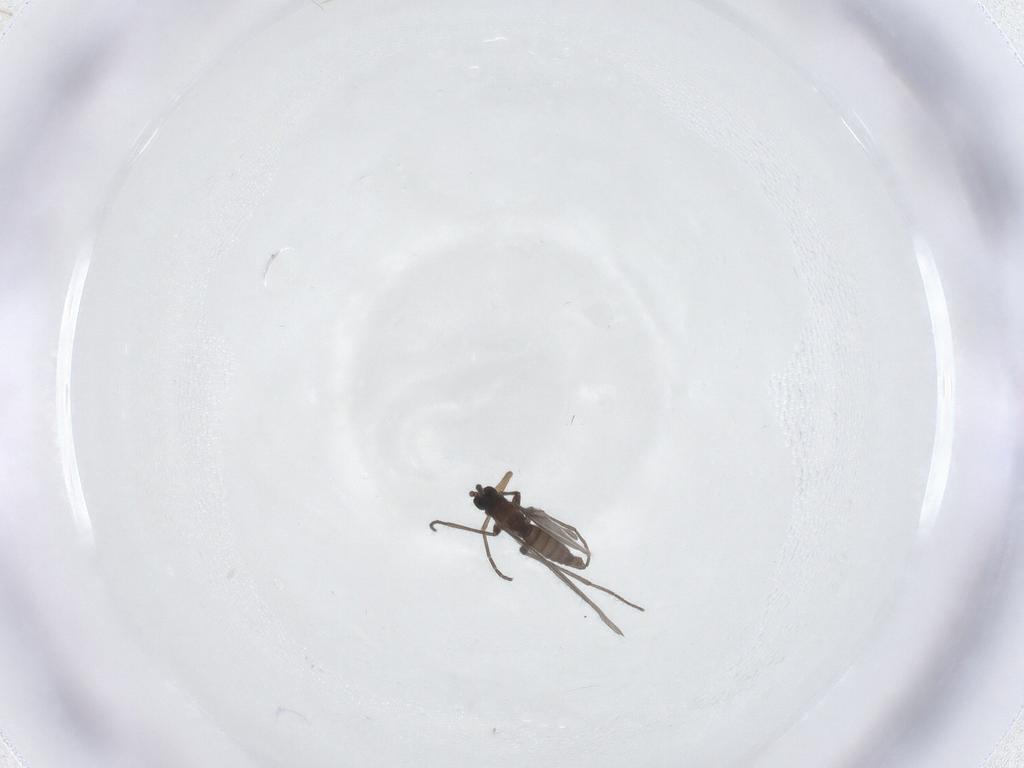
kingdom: Animalia
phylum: Arthropoda
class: Insecta
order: Diptera
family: Sciaridae
